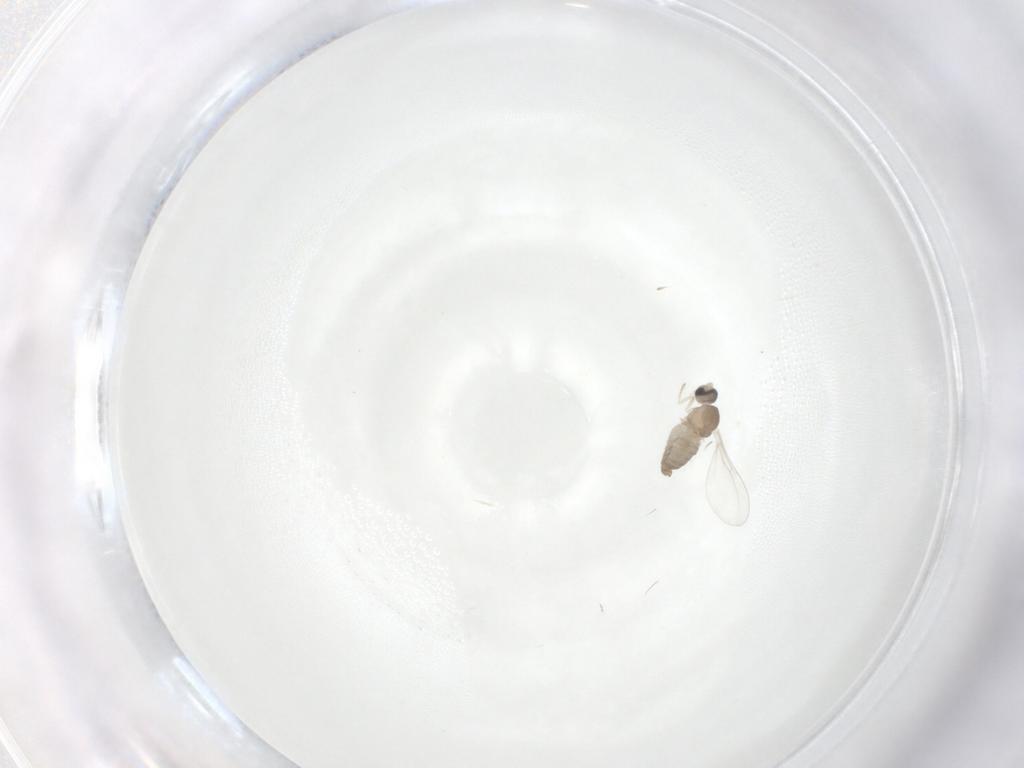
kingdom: Animalia
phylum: Arthropoda
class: Insecta
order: Diptera
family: Cecidomyiidae
